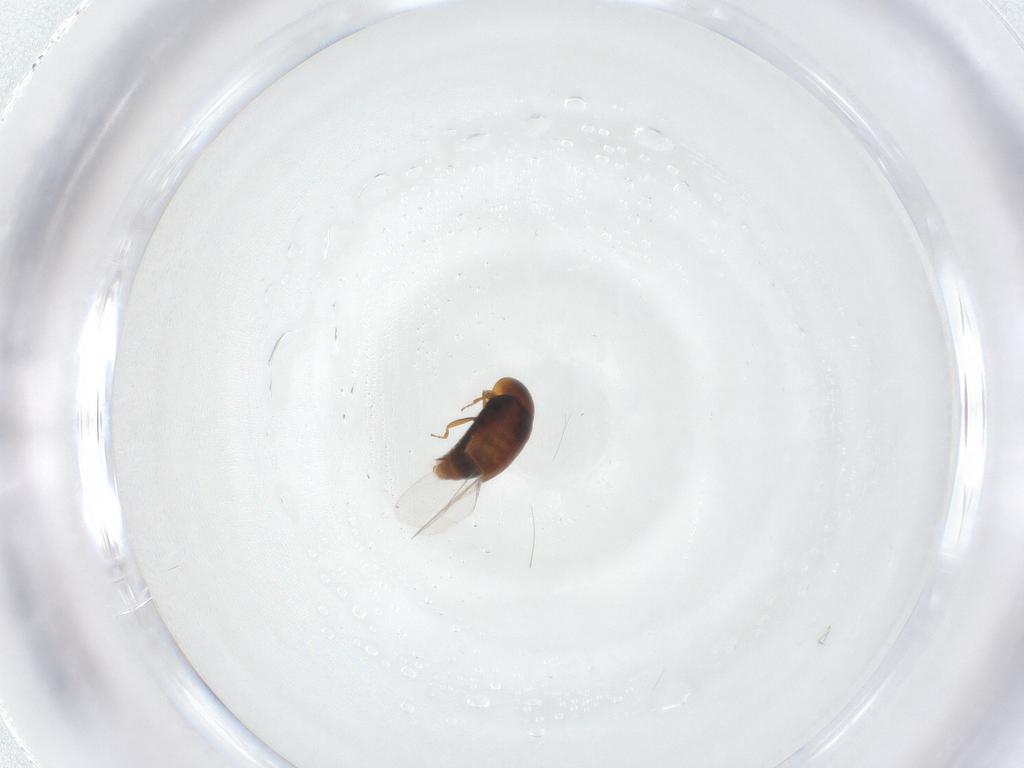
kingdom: Animalia
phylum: Arthropoda
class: Insecta
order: Coleoptera
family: Corylophidae
